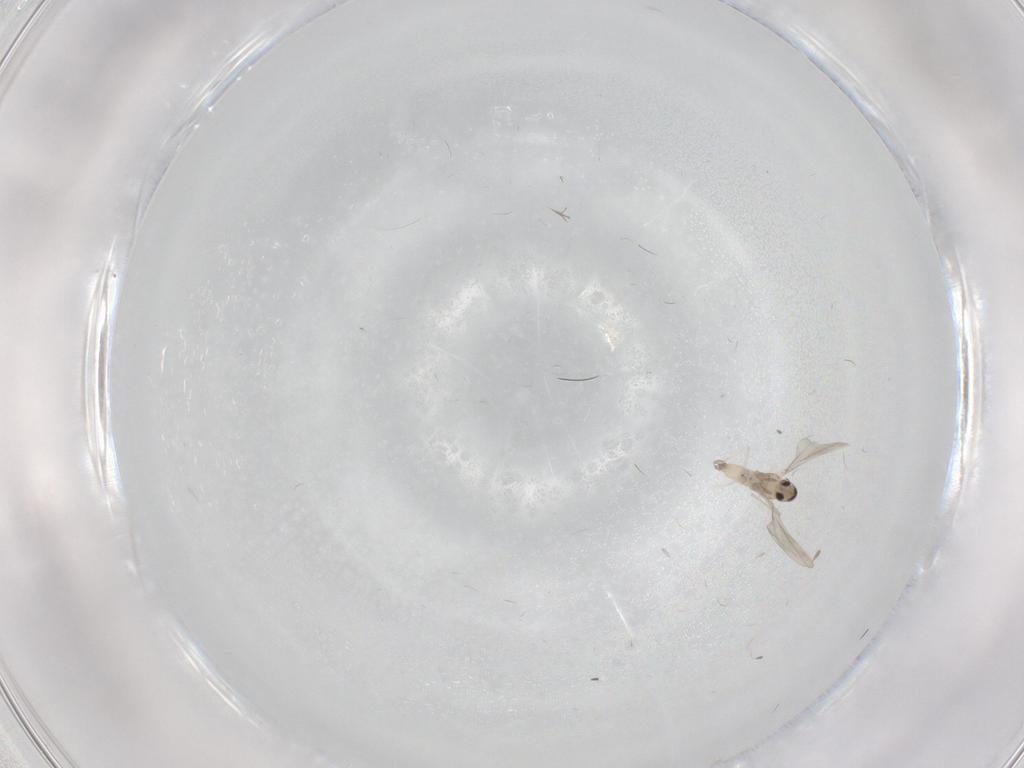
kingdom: Animalia
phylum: Arthropoda
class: Insecta
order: Diptera
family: Cecidomyiidae
